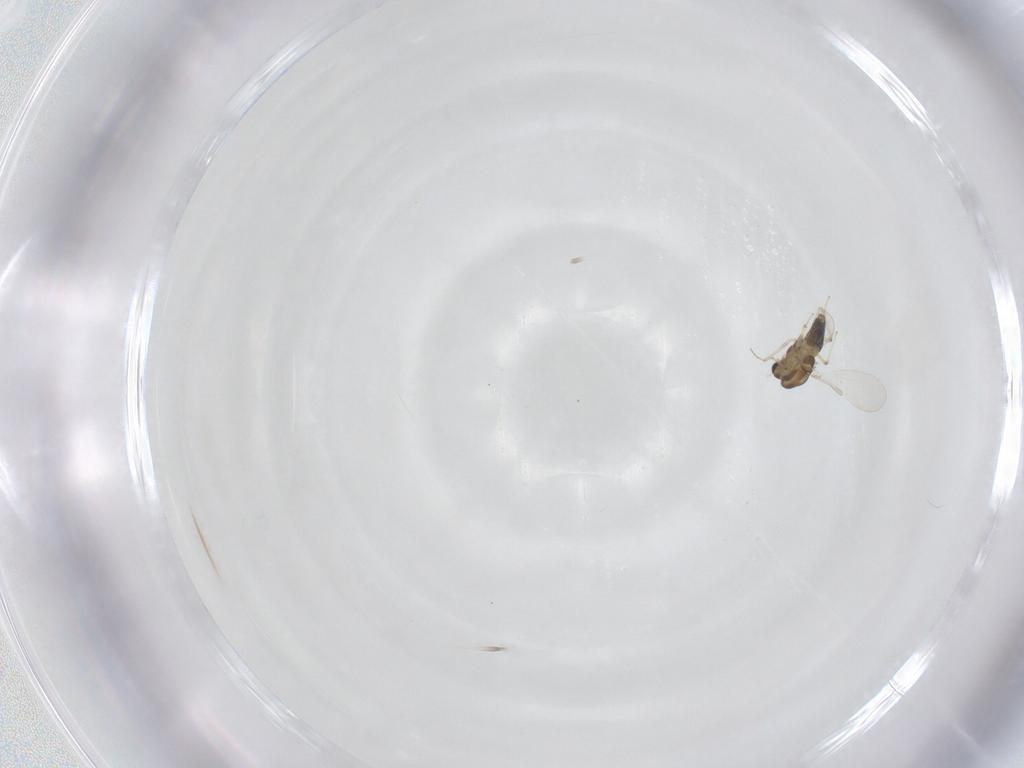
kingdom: Animalia
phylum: Arthropoda
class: Insecta
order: Diptera
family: Chironomidae
